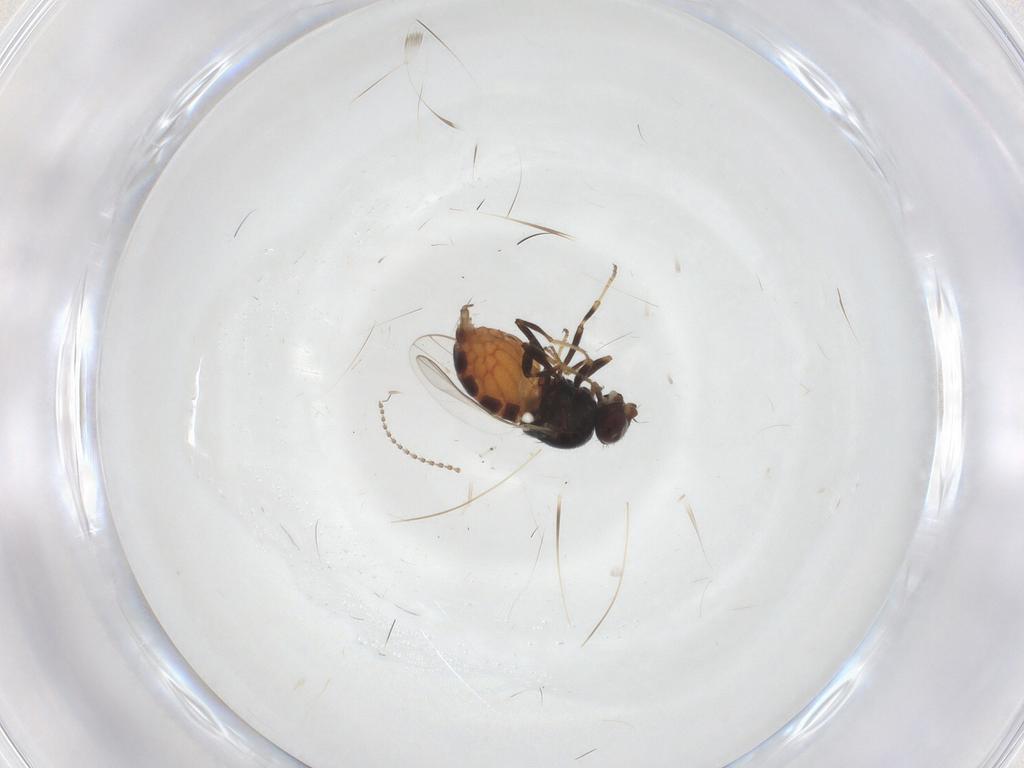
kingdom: Animalia
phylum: Arthropoda
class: Insecta
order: Diptera
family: Chloropidae
